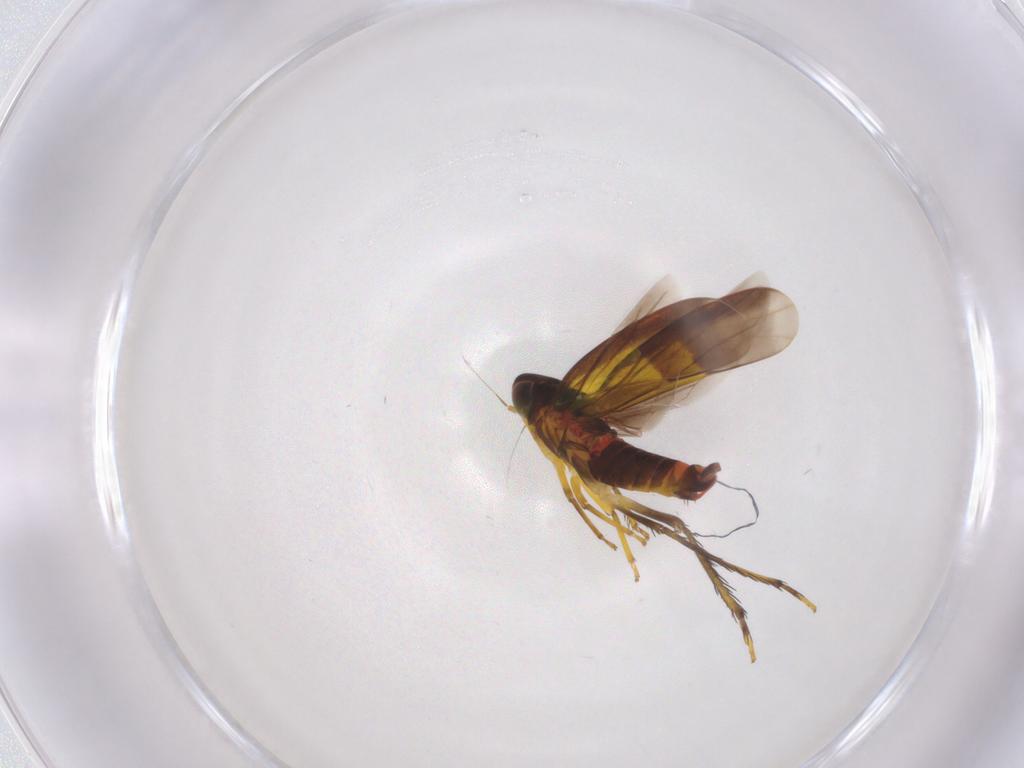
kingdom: Animalia
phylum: Arthropoda
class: Insecta
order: Hemiptera
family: Cicadellidae
